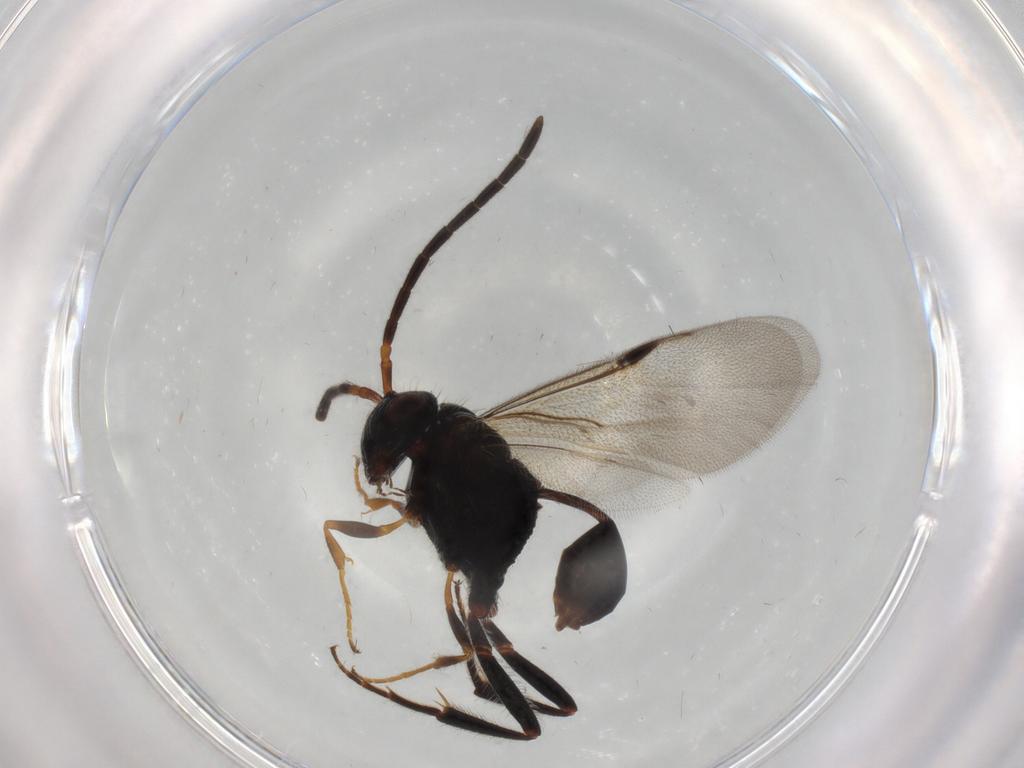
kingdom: Animalia
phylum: Arthropoda
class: Insecta
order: Hymenoptera
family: Evaniidae
